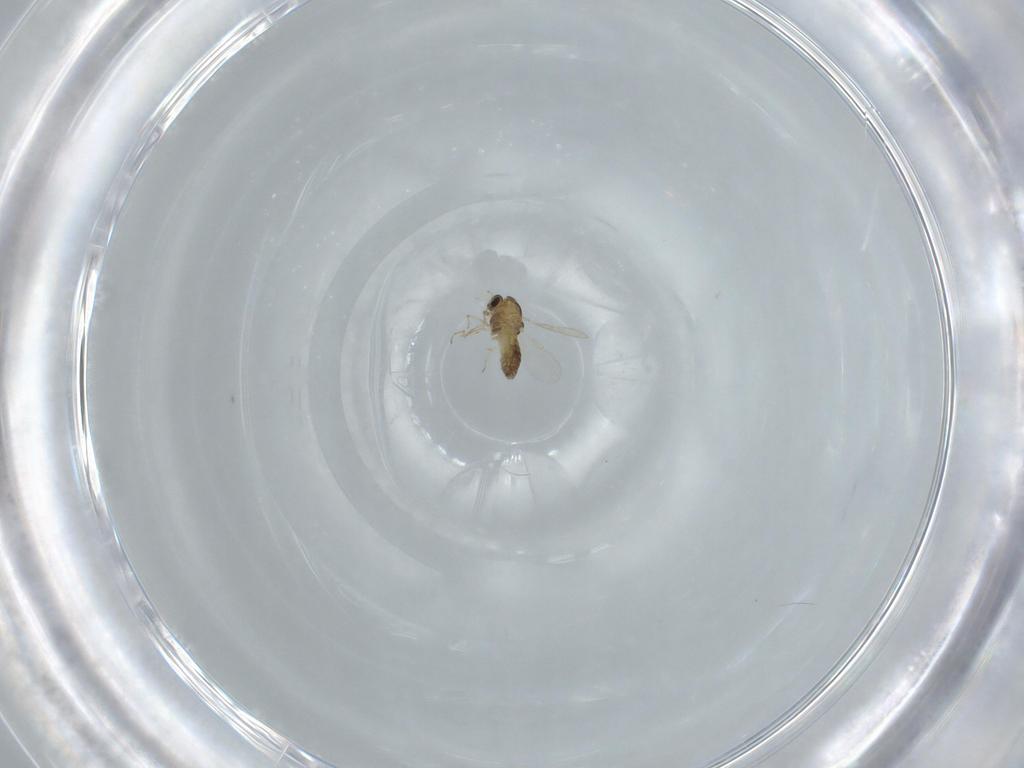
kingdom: Animalia
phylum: Arthropoda
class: Insecta
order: Diptera
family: Chironomidae
